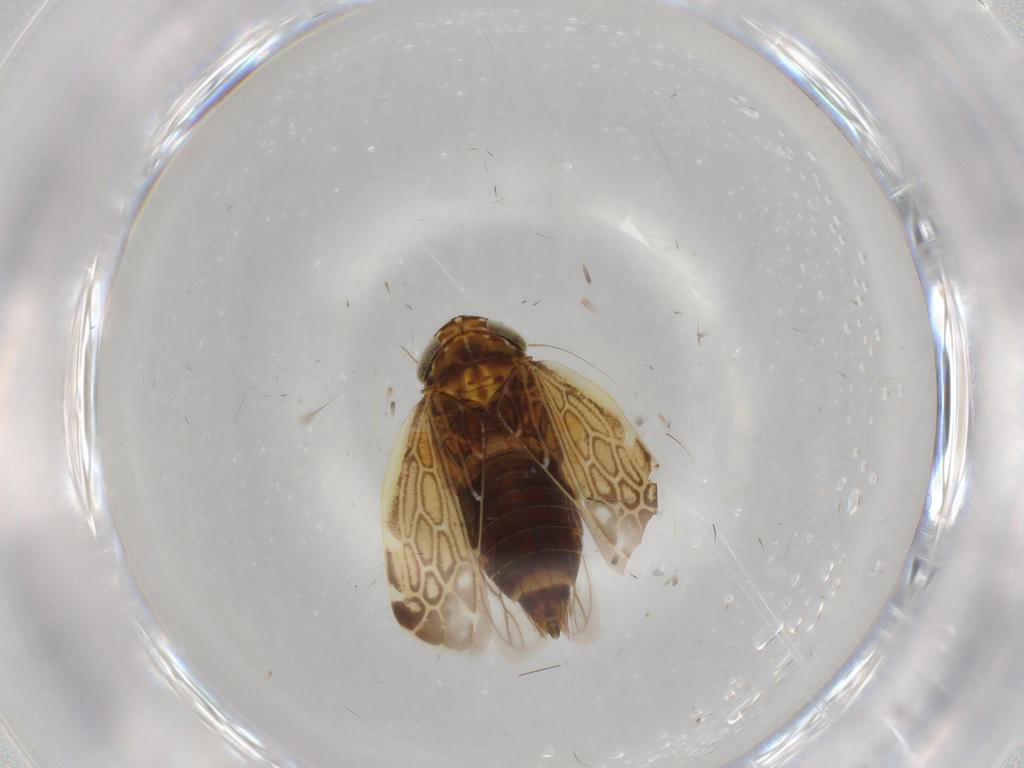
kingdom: Animalia
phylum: Arthropoda
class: Insecta
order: Hemiptera
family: Cicadellidae
